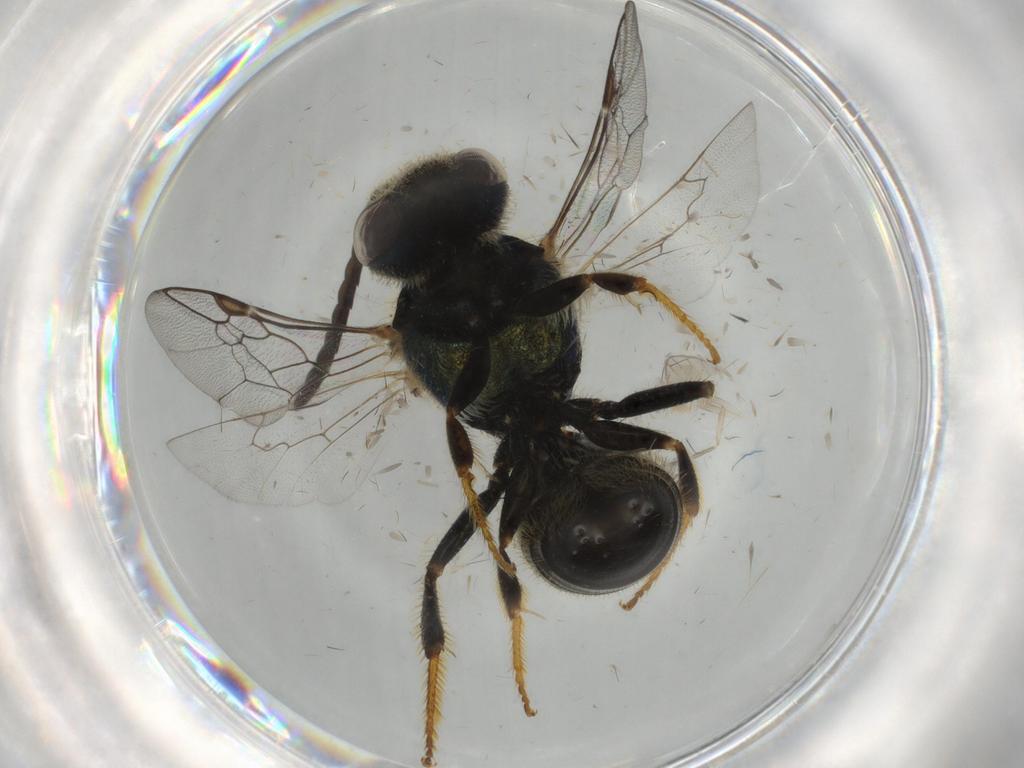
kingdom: Animalia
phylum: Arthropoda
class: Insecta
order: Hymenoptera
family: Halictidae
